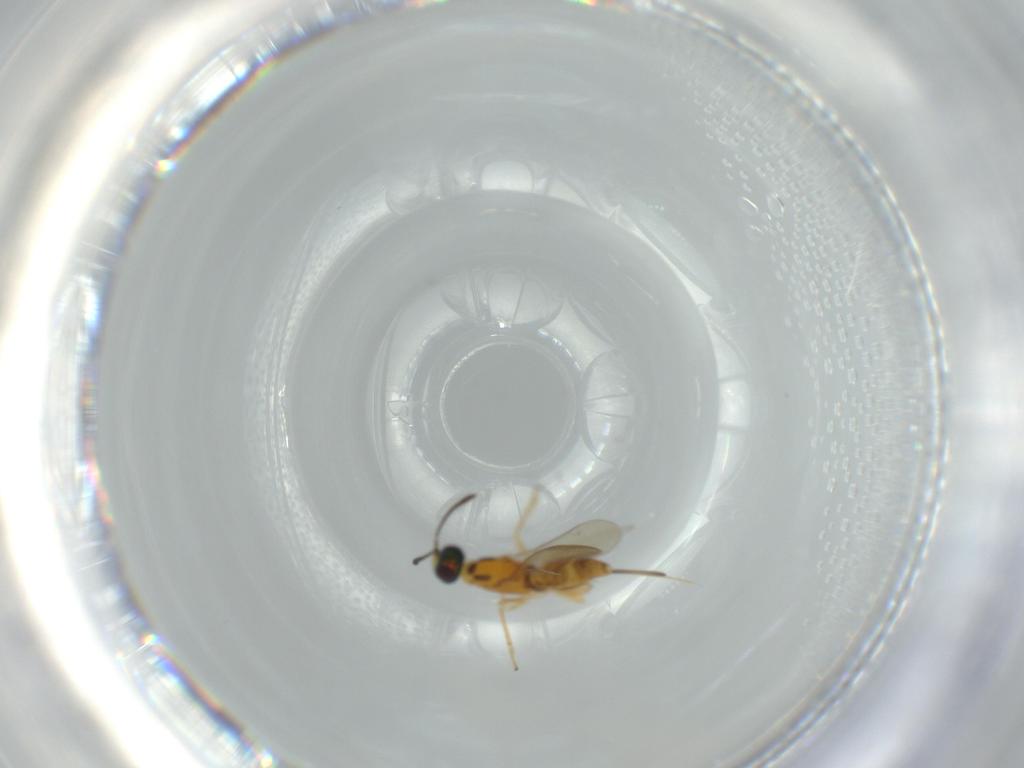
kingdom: Animalia
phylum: Arthropoda
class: Insecta
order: Hymenoptera
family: Eupelmidae
